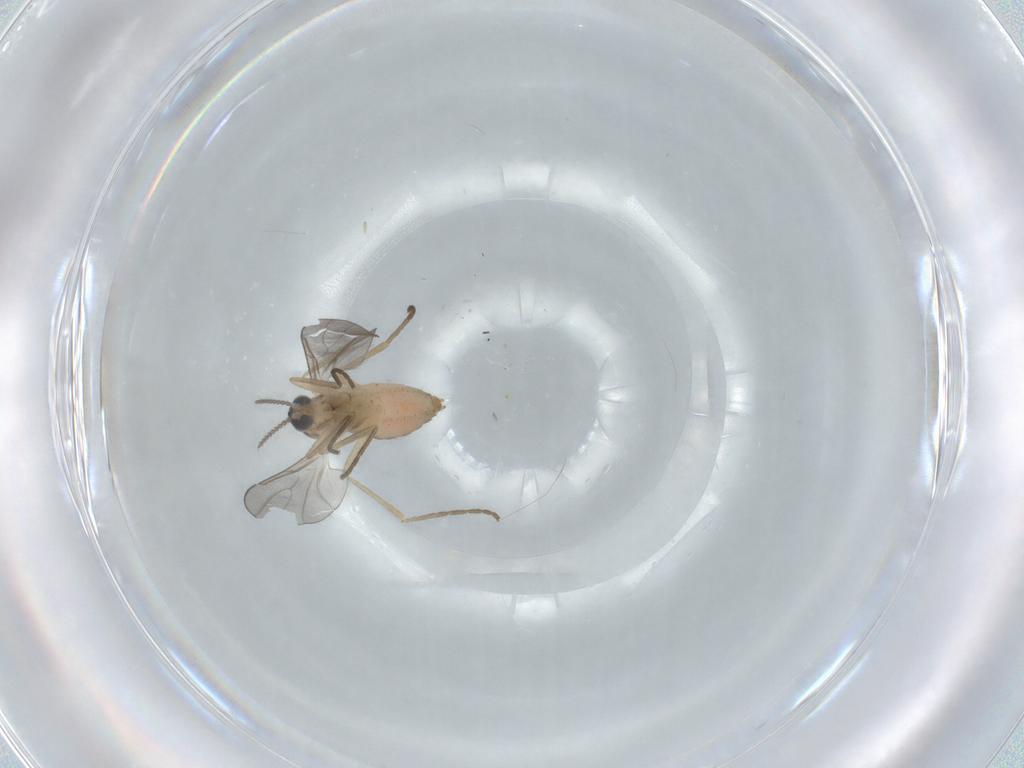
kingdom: Animalia
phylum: Arthropoda
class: Insecta
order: Diptera
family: Cecidomyiidae
